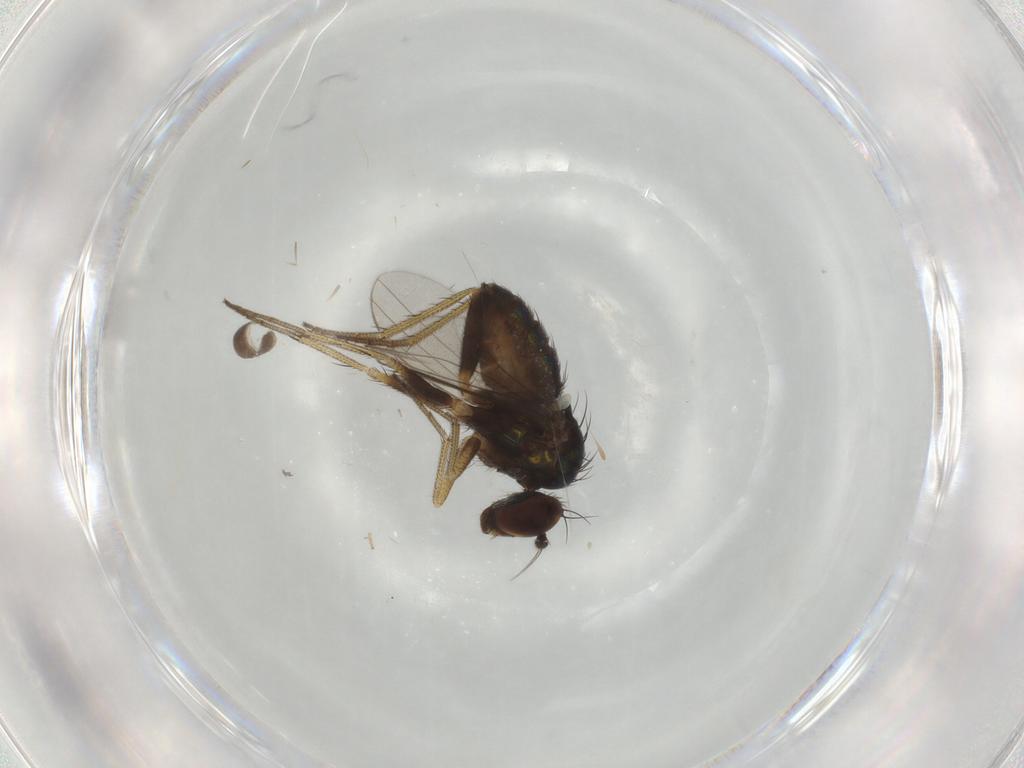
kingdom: Animalia
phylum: Arthropoda
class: Insecta
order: Diptera
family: Dolichopodidae
